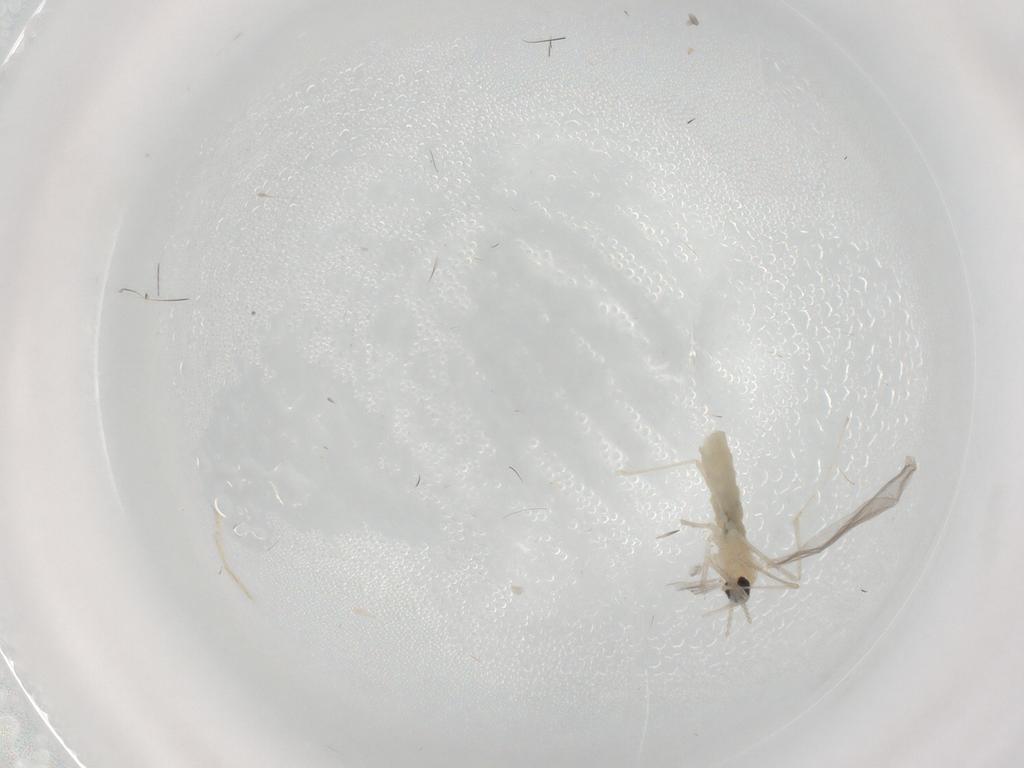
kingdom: Animalia
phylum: Arthropoda
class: Insecta
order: Diptera
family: Cecidomyiidae
